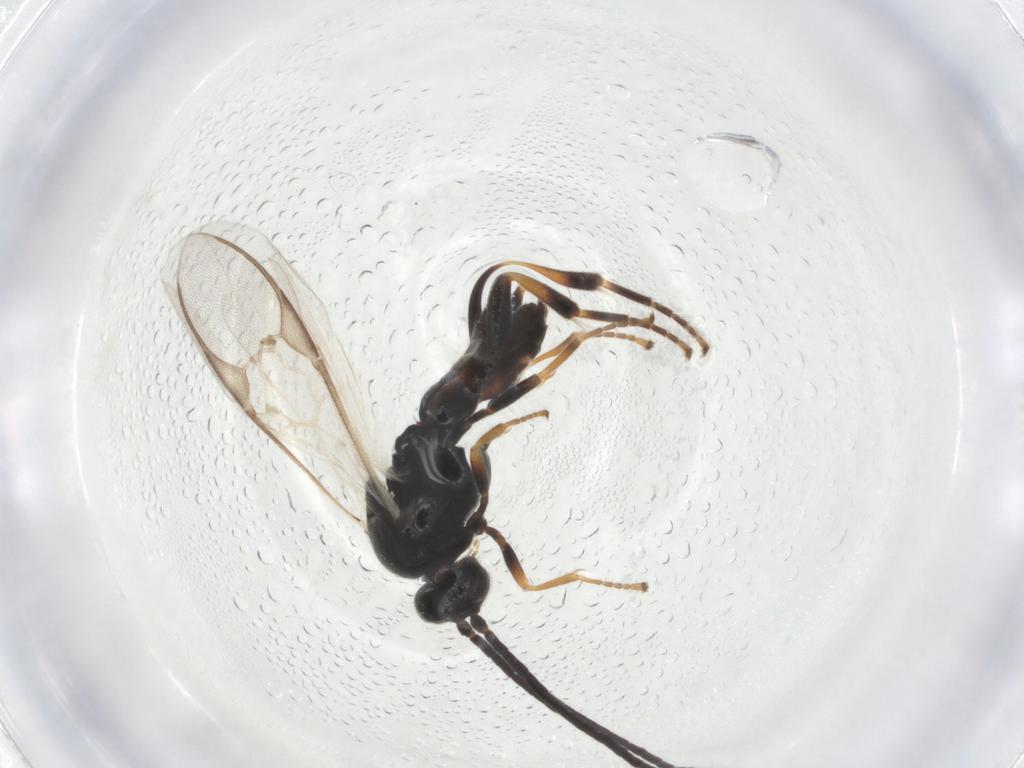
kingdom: Animalia
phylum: Arthropoda
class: Insecta
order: Hymenoptera
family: Braconidae
